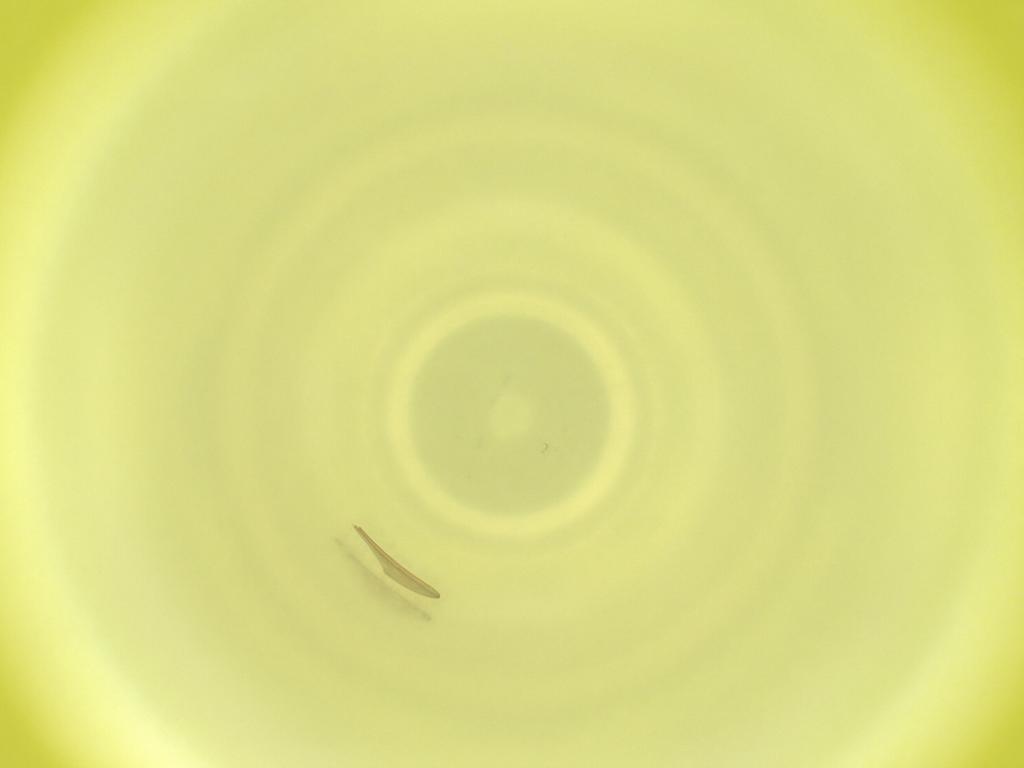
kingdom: Animalia
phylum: Arthropoda
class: Insecta
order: Diptera
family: Cecidomyiidae
